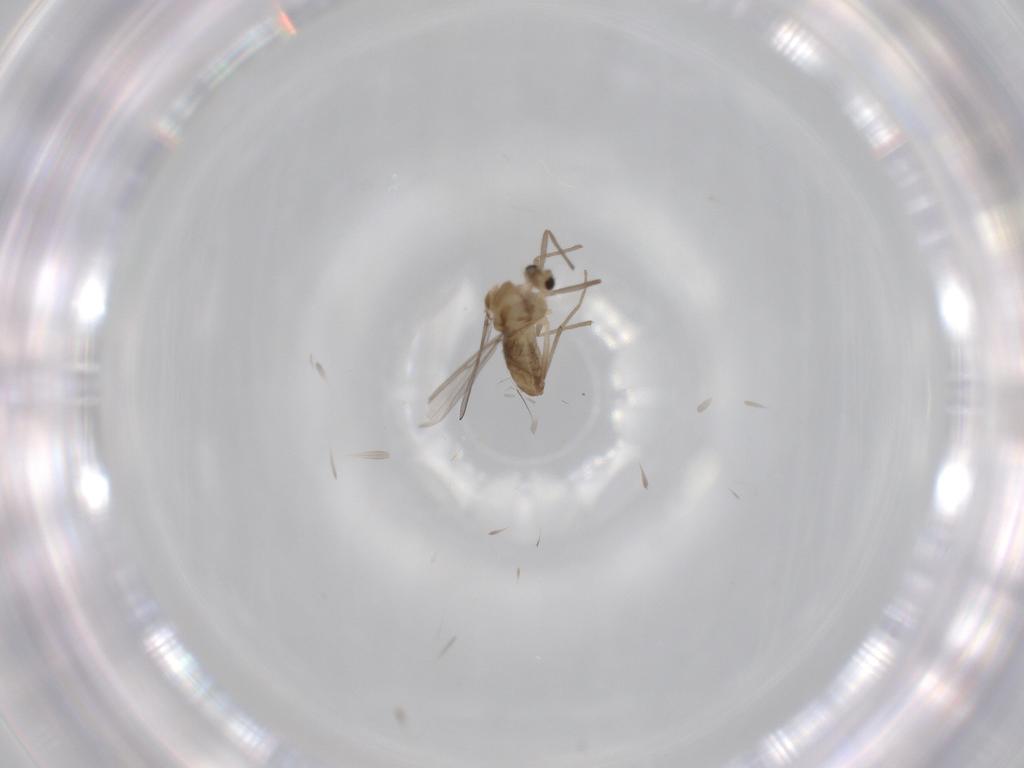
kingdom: Animalia
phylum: Arthropoda
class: Insecta
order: Diptera
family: Chironomidae
